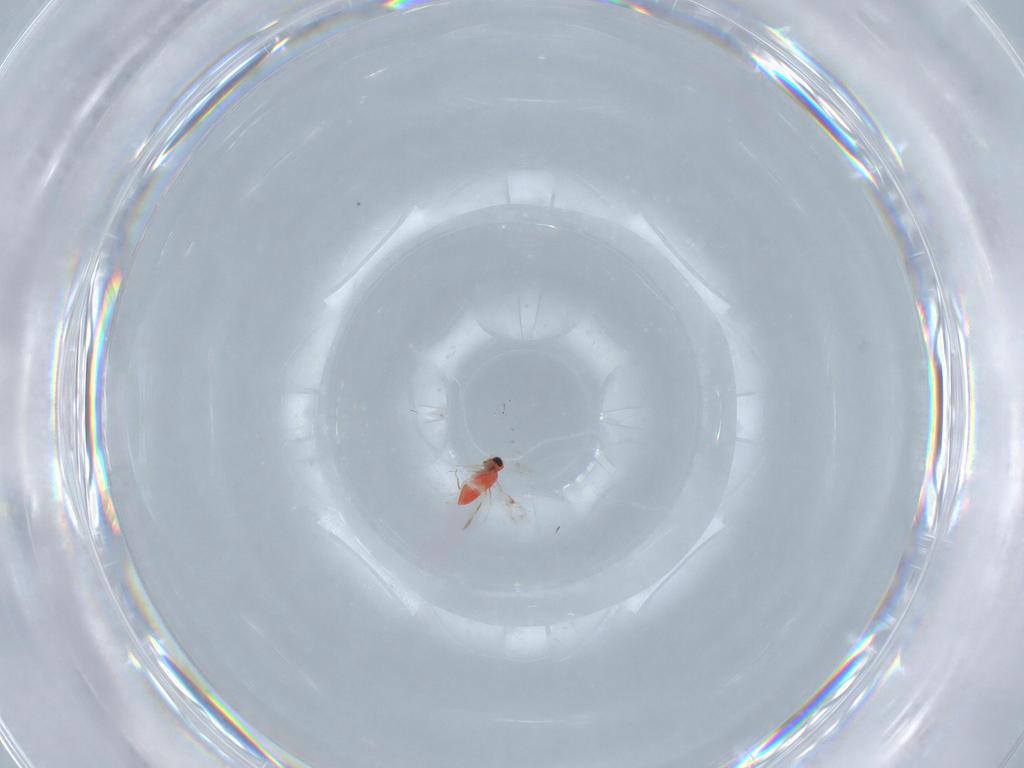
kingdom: Animalia
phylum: Arthropoda
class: Insecta
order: Hymenoptera
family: Trichogrammatidae
